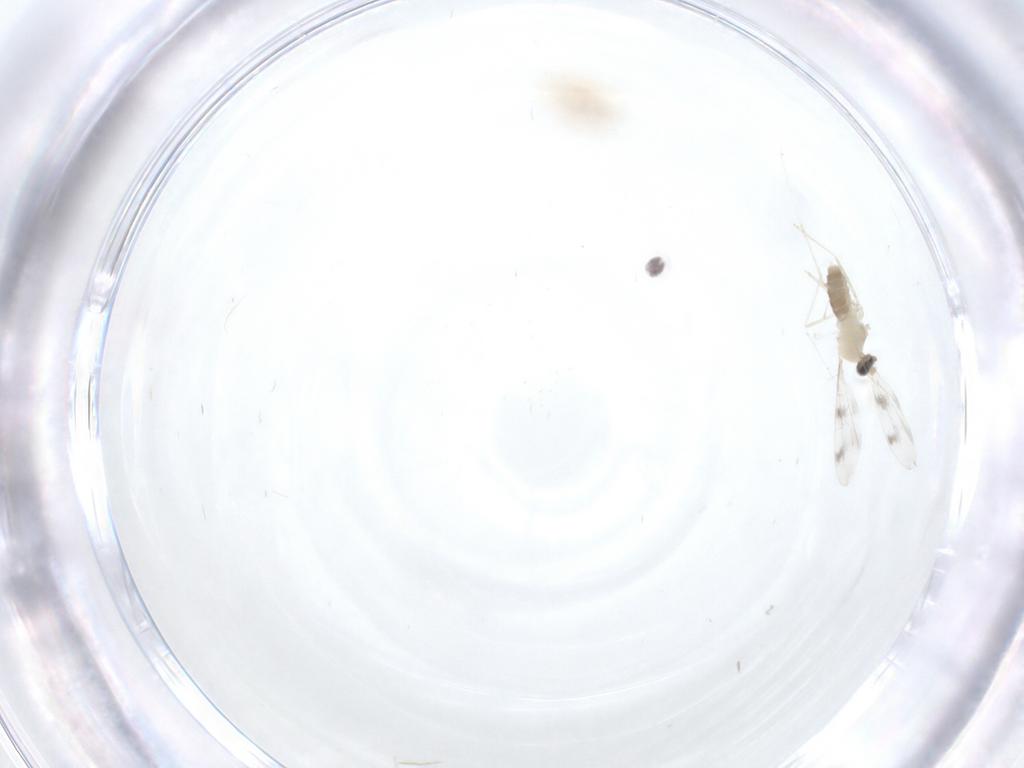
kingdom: Animalia
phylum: Arthropoda
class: Insecta
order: Diptera
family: Cecidomyiidae
